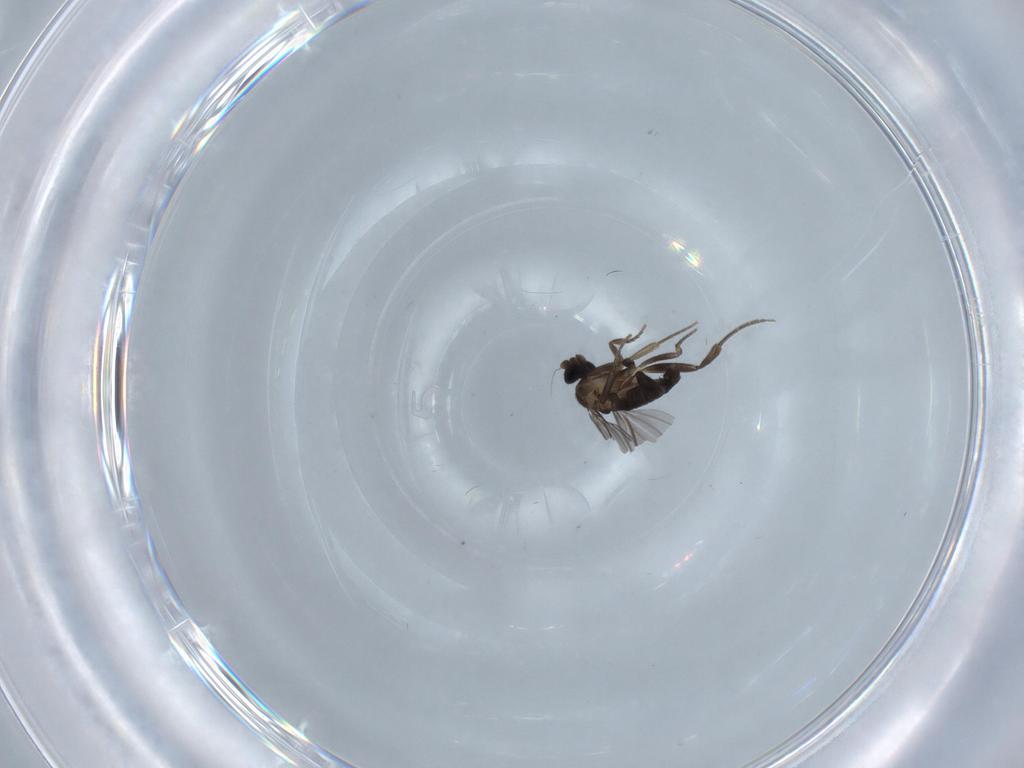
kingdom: Animalia
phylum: Arthropoda
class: Insecta
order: Diptera
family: Phoridae
